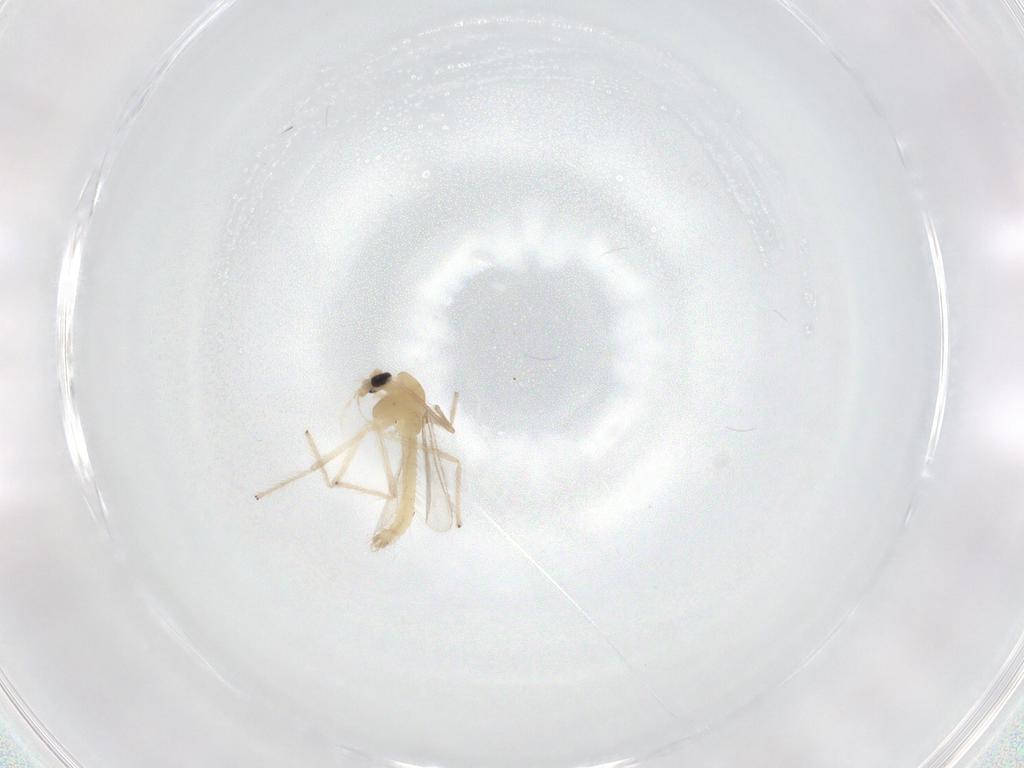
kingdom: Animalia
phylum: Arthropoda
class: Insecta
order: Diptera
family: Chironomidae
